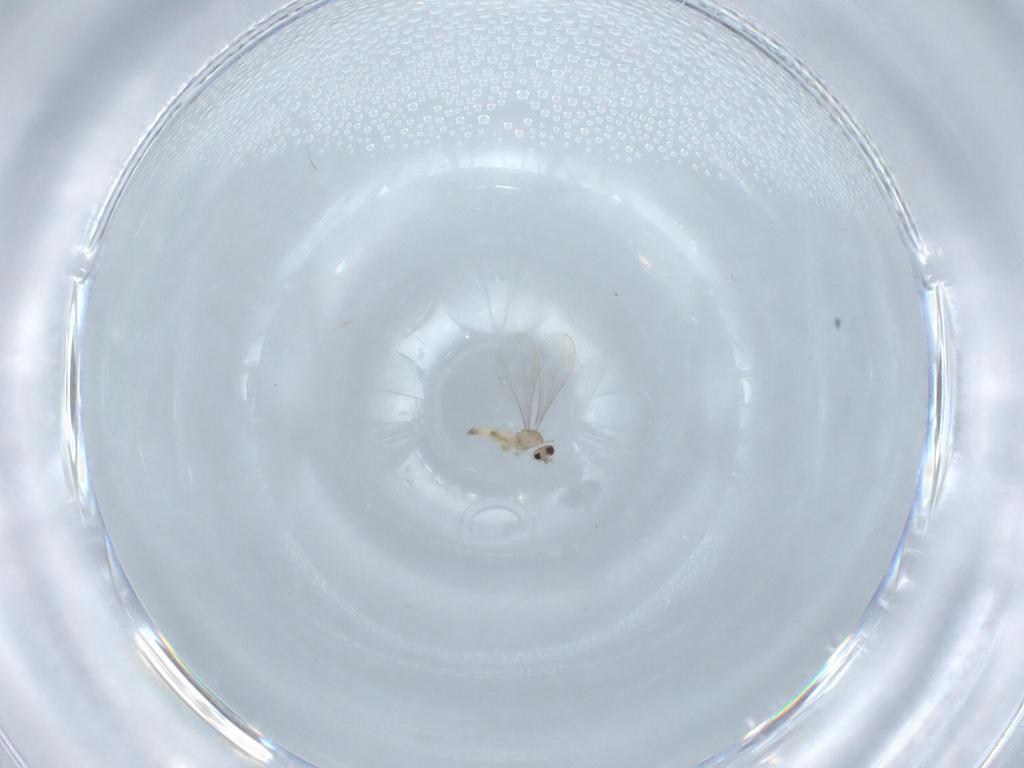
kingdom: Animalia
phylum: Arthropoda
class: Insecta
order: Diptera
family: Cecidomyiidae
